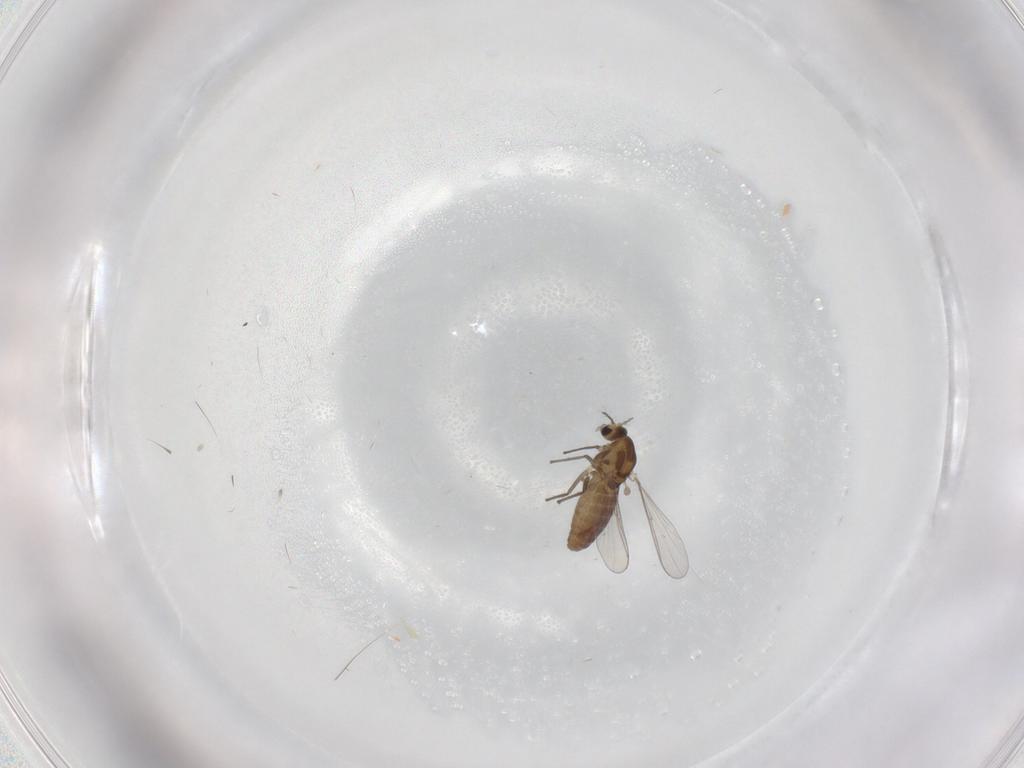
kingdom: Animalia
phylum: Arthropoda
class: Insecta
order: Diptera
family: Chironomidae
